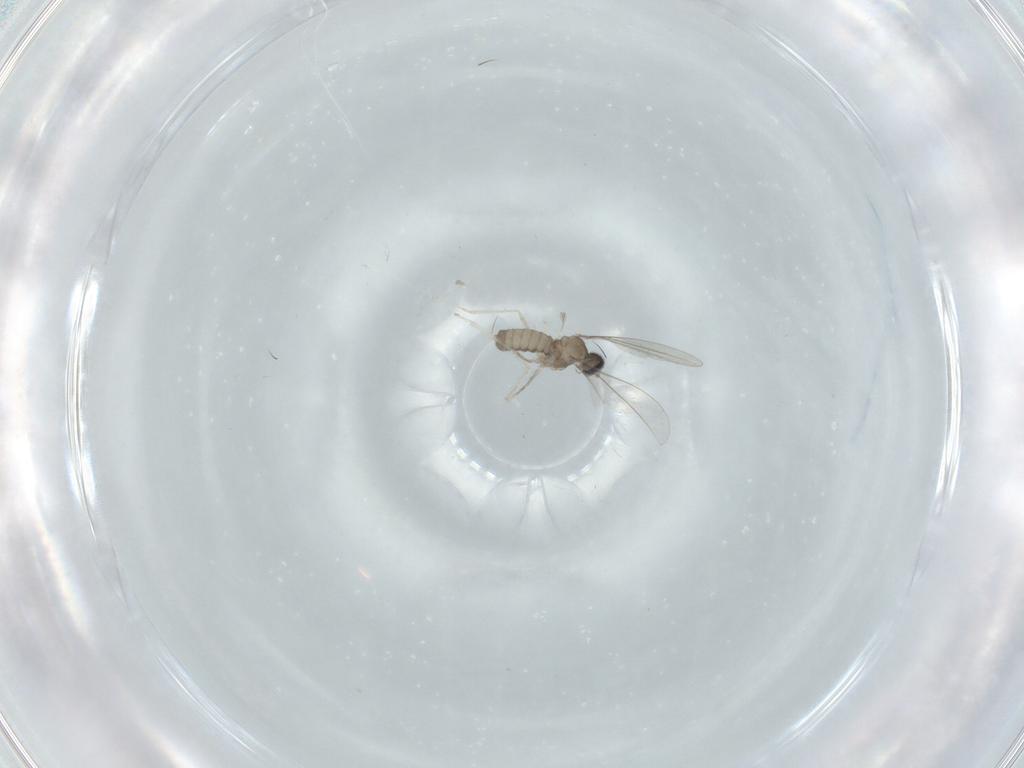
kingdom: Animalia
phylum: Arthropoda
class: Insecta
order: Diptera
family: Cecidomyiidae
